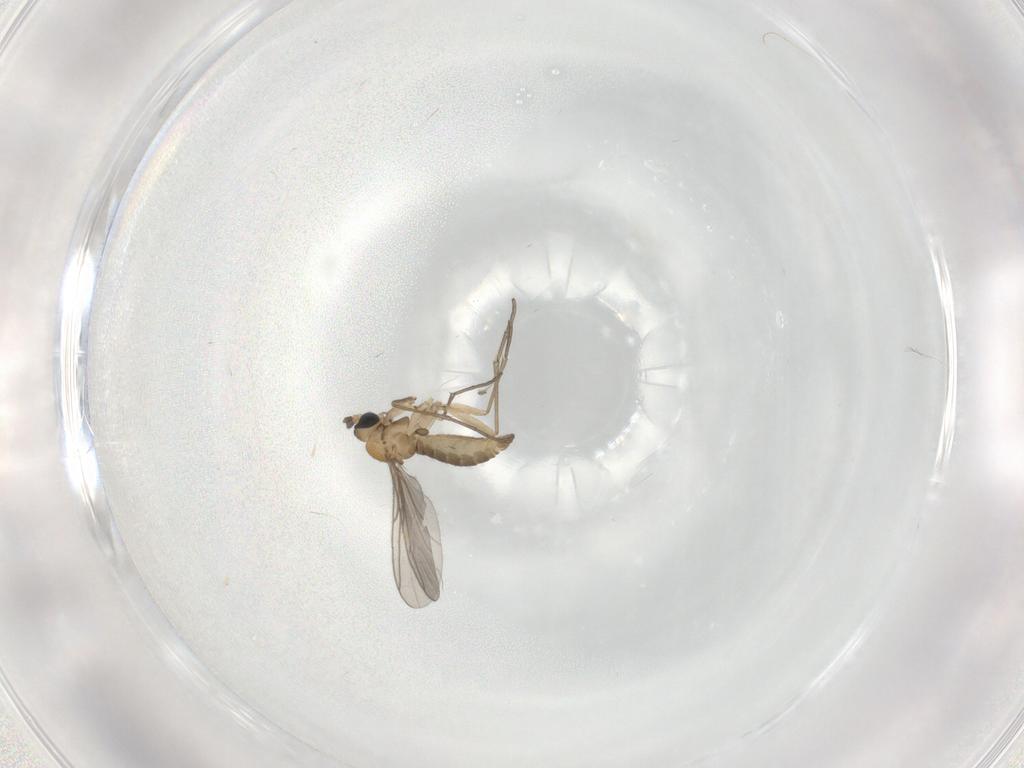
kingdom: Animalia
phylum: Arthropoda
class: Insecta
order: Diptera
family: Sciaridae
